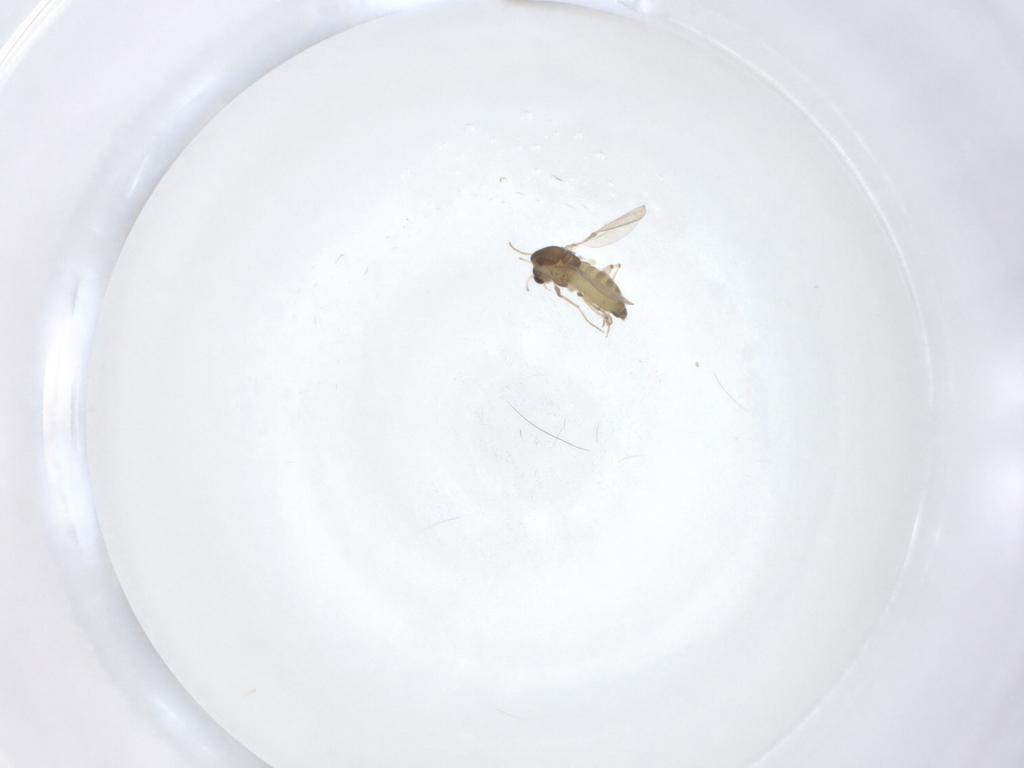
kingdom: Animalia
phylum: Arthropoda
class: Insecta
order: Diptera
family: Chironomidae
